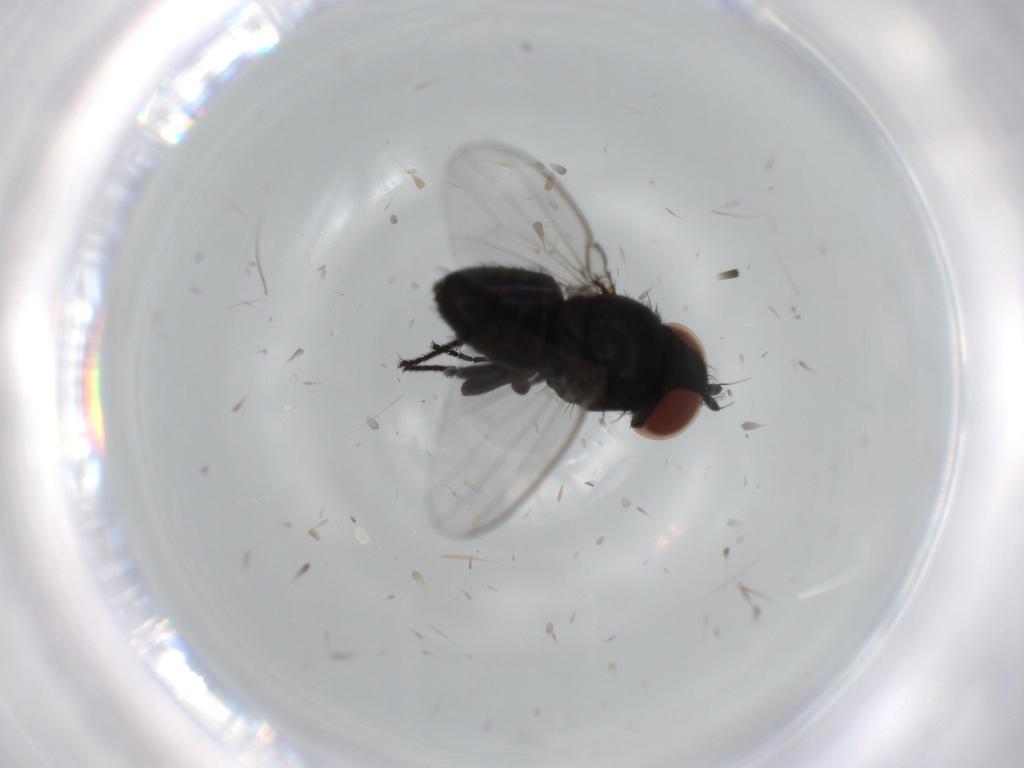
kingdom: Animalia
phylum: Arthropoda
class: Insecta
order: Diptera
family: Milichiidae
